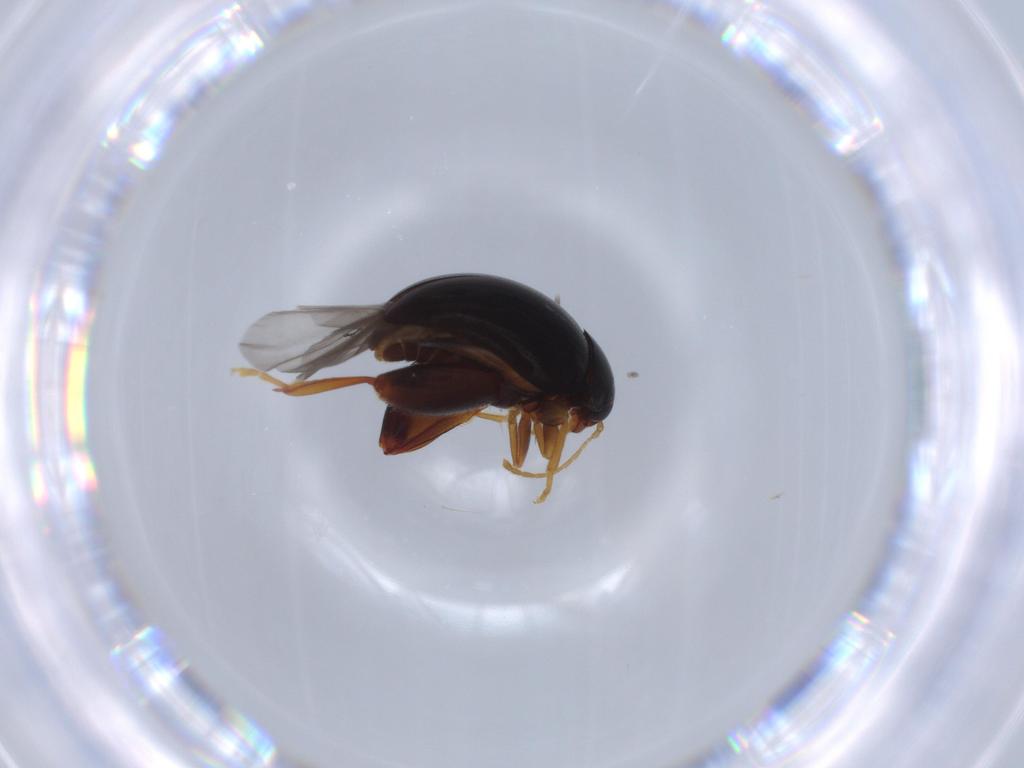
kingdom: Animalia
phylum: Arthropoda
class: Insecta
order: Coleoptera
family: Chrysomelidae
